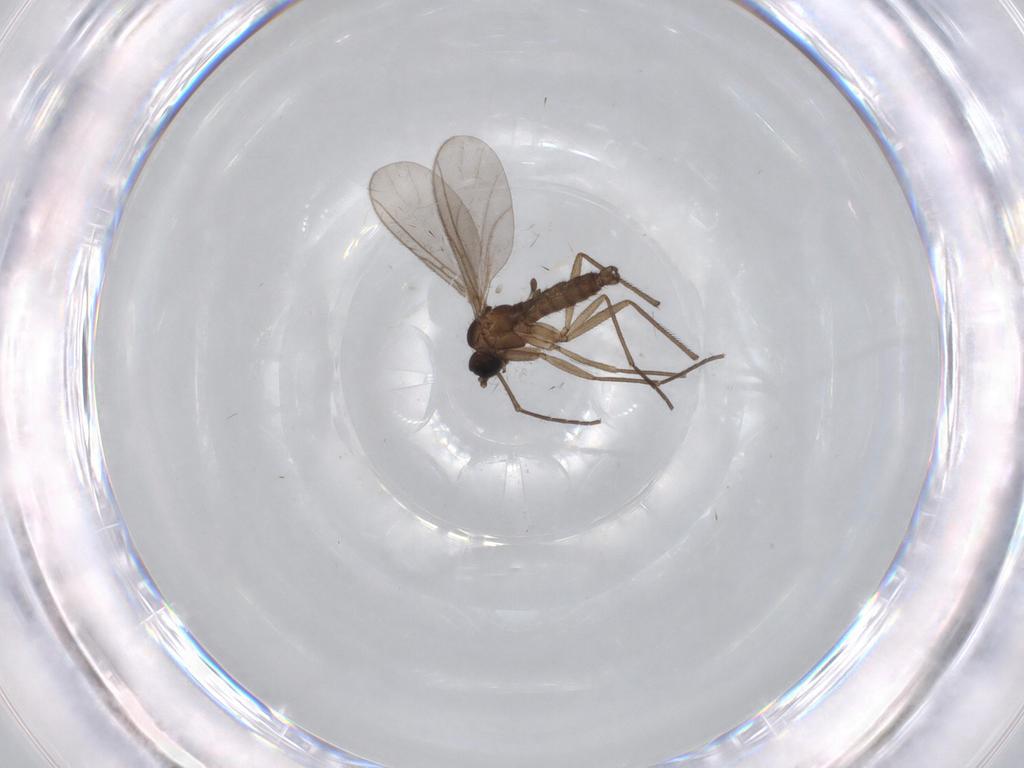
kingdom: Animalia
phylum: Arthropoda
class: Insecta
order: Diptera
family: Sciaridae
